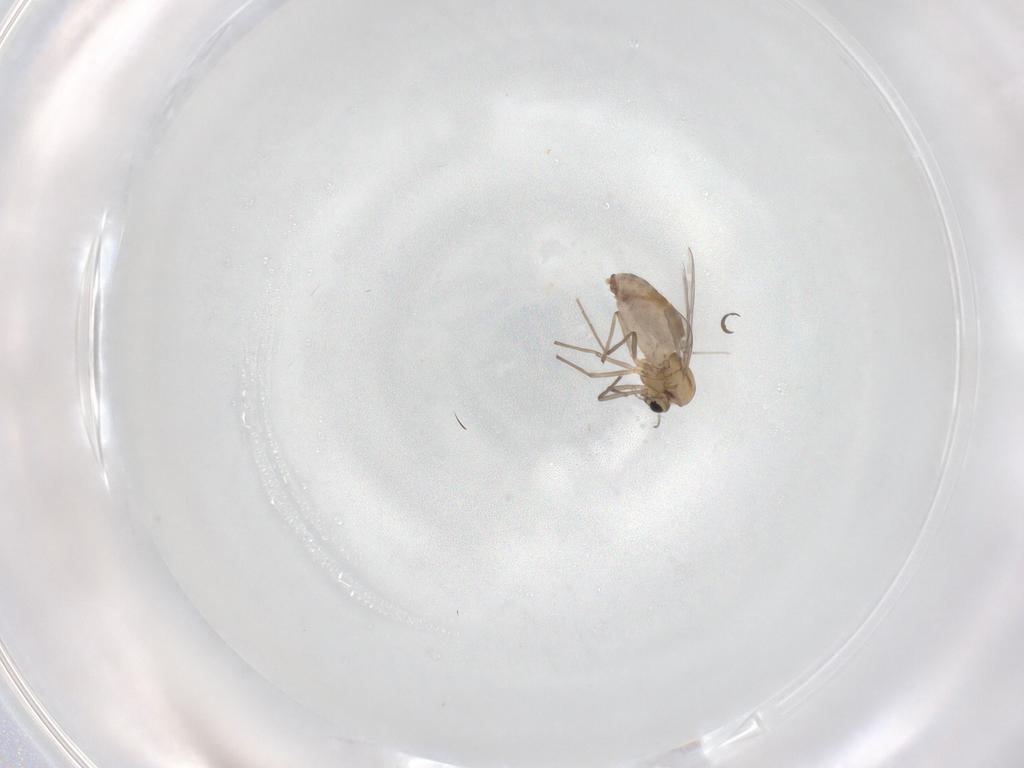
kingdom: Animalia
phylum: Arthropoda
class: Insecta
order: Diptera
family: Chironomidae
